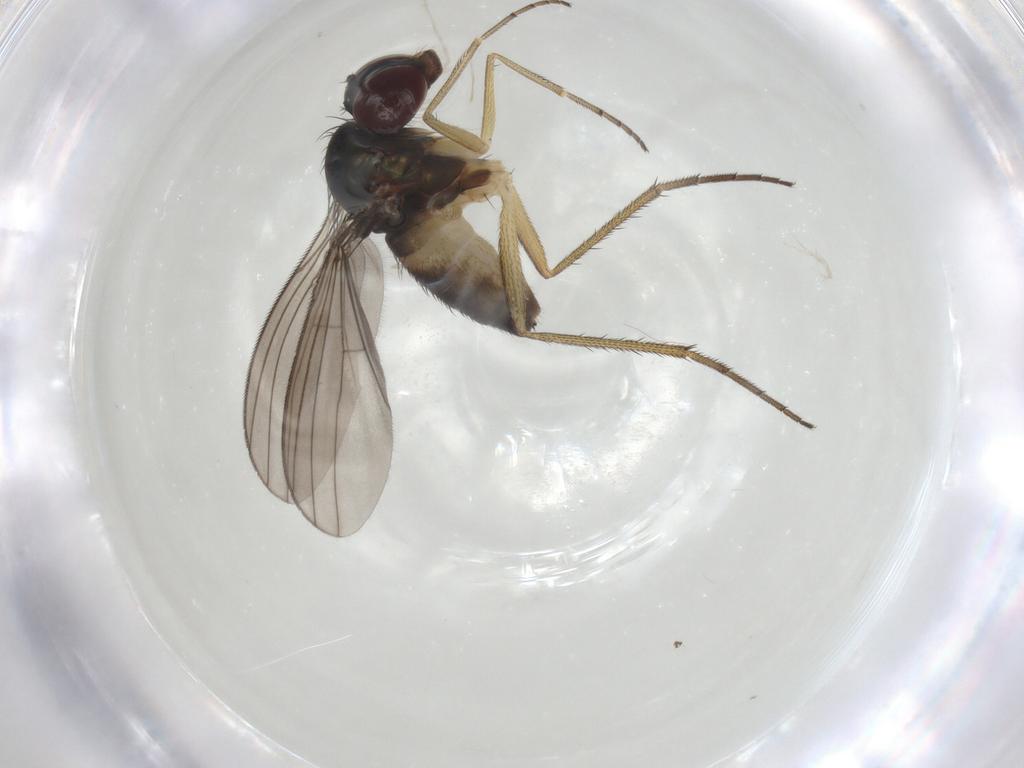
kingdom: Animalia
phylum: Arthropoda
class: Insecta
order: Diptera
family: Dolichopodidae
